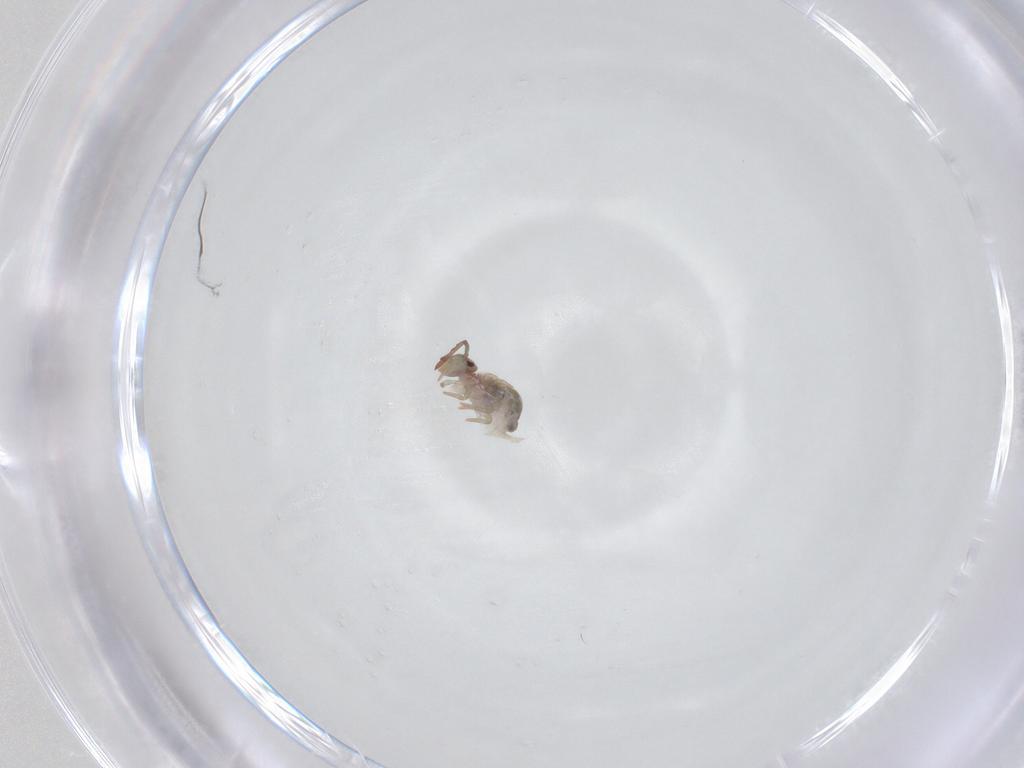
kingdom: Animalia
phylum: Arthropoda
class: Collembola
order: Symphypleona
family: Dicyrtomidae
